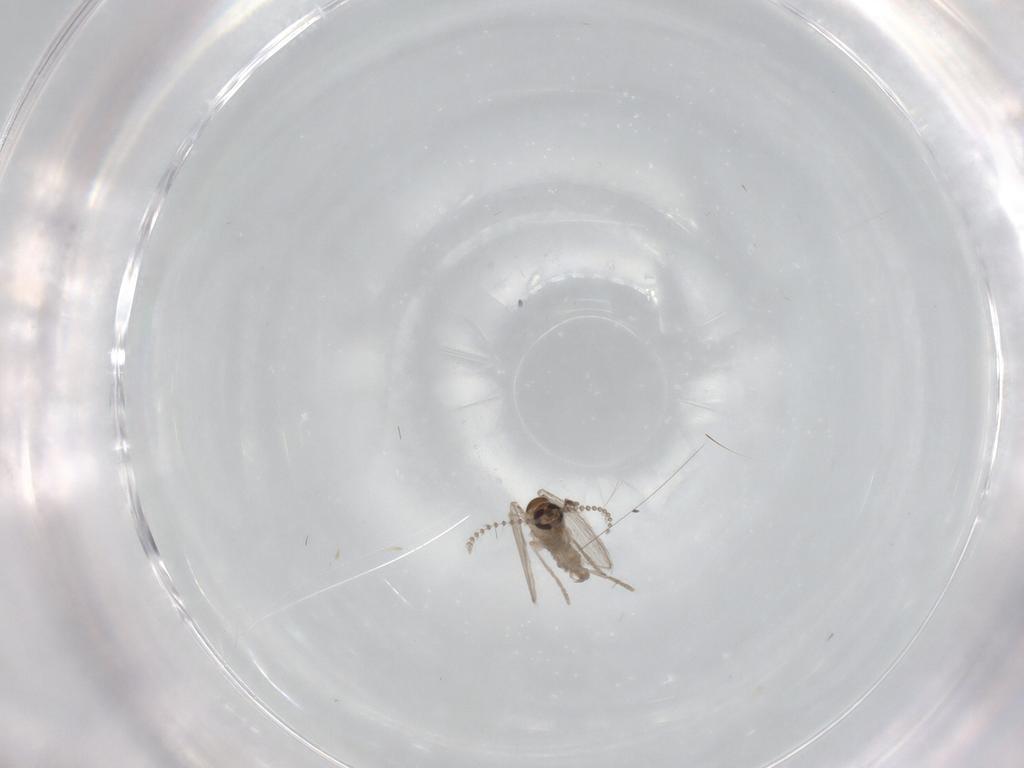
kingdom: Animalia
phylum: Arthropoda
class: Insecta
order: Diptera
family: Psychodidae
